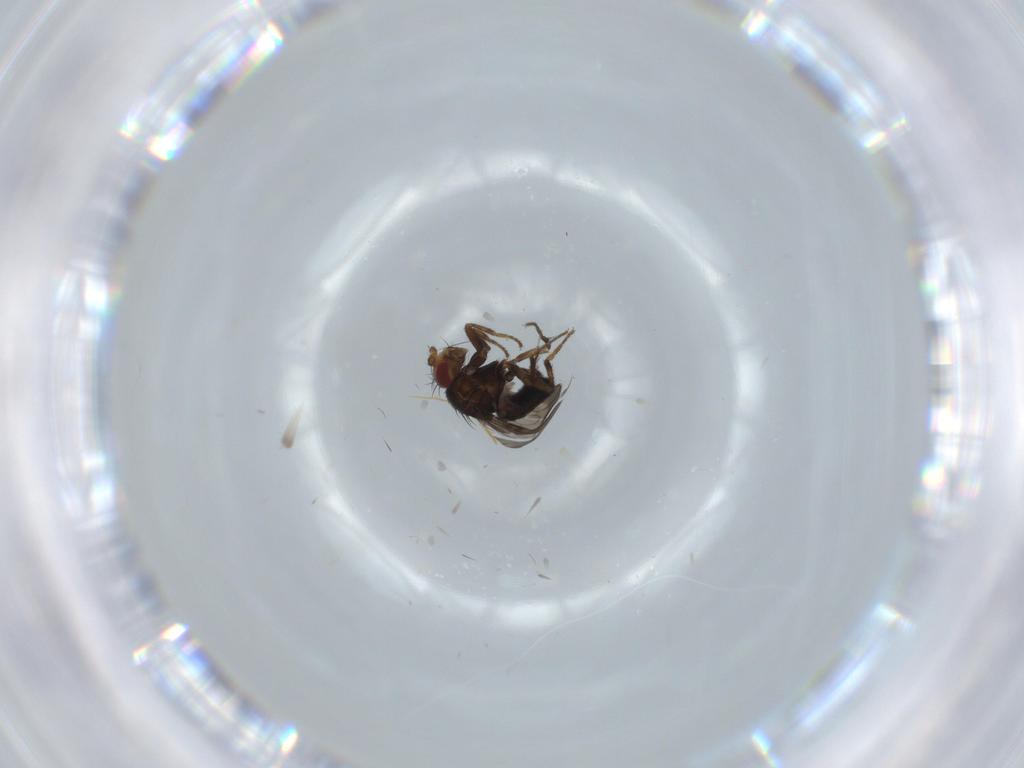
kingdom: Animalia
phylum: Arthropoda
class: Insecta
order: Diptera
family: Sphaeroceridae
